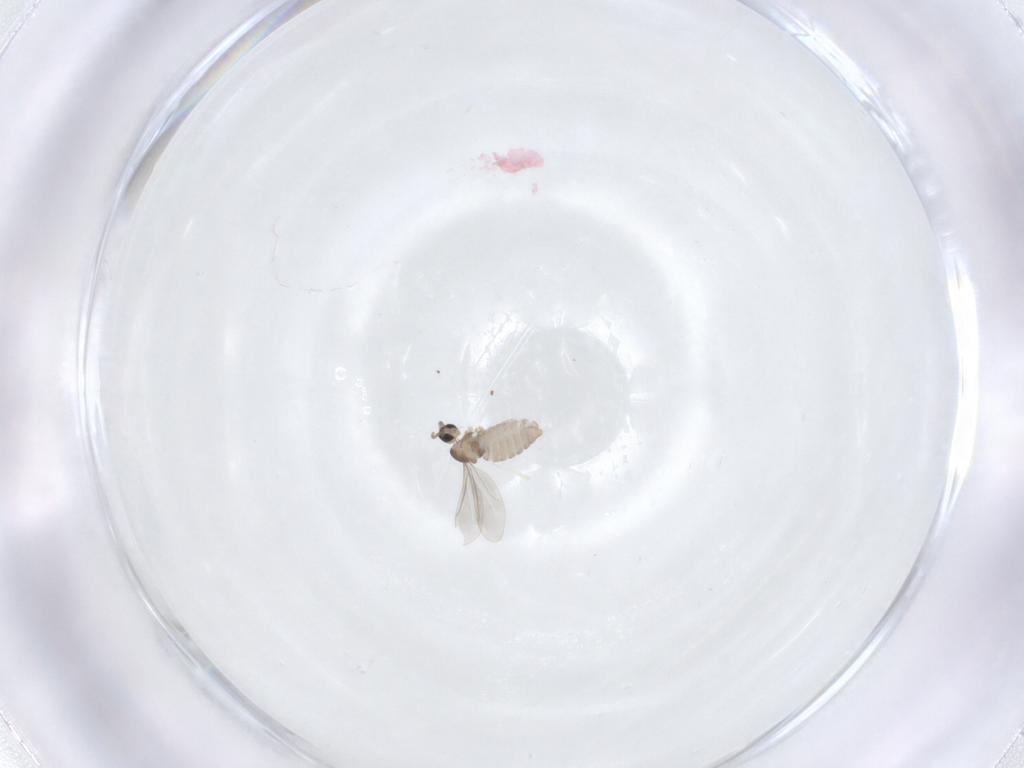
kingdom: Animalia
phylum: Arthropoda
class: Insecta
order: Diptera
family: Cecidomyiidae
